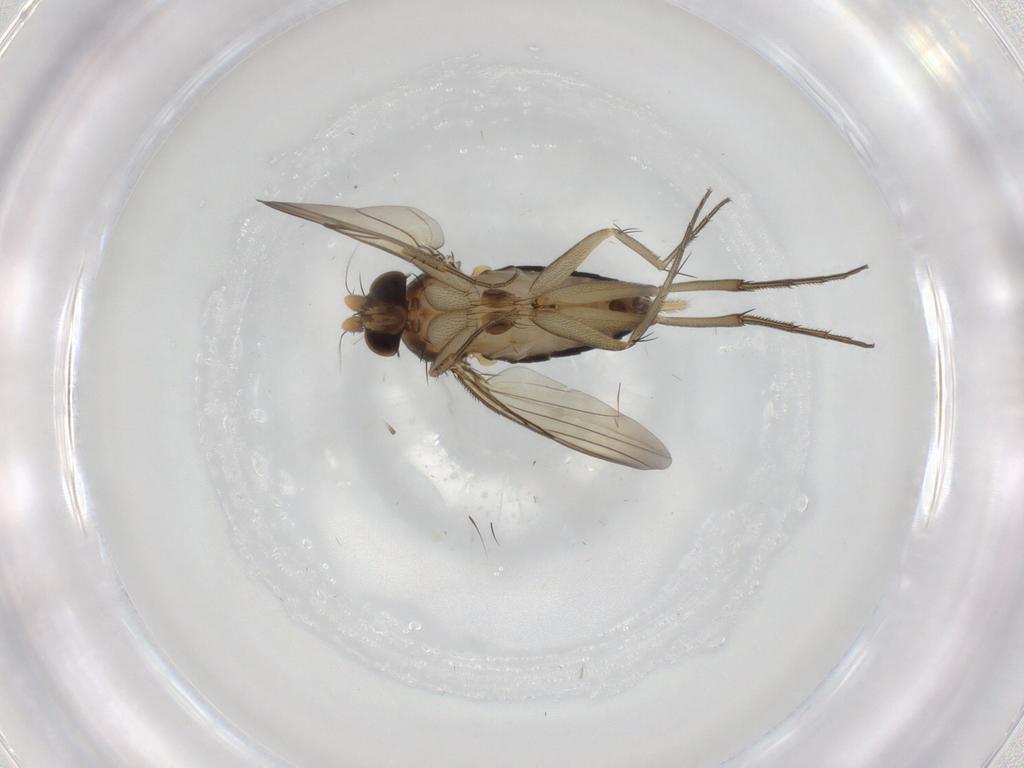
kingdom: Animalia
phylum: Arthropoda
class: Insecta
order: Diptera
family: Phoridae
